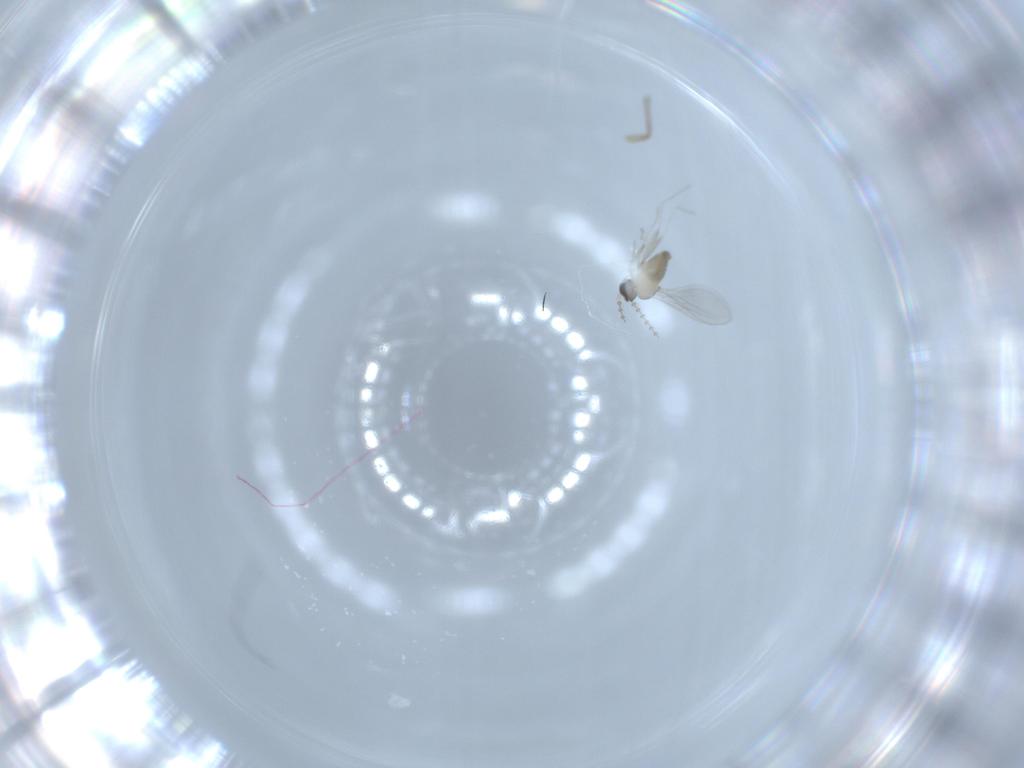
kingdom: Animalia
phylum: Arthropoda
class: Insecta
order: Diptera
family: Cecidomyiidae
